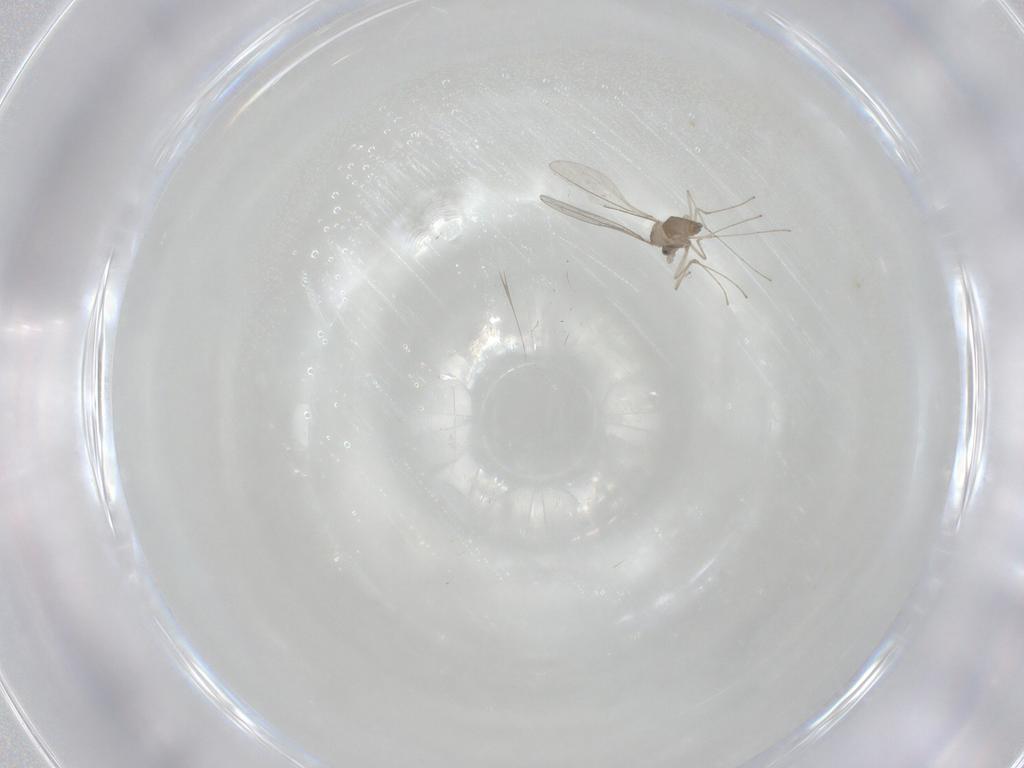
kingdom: Animalia
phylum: Arthropoda
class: Insecta
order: Diptera
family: Cecidomyiidae
